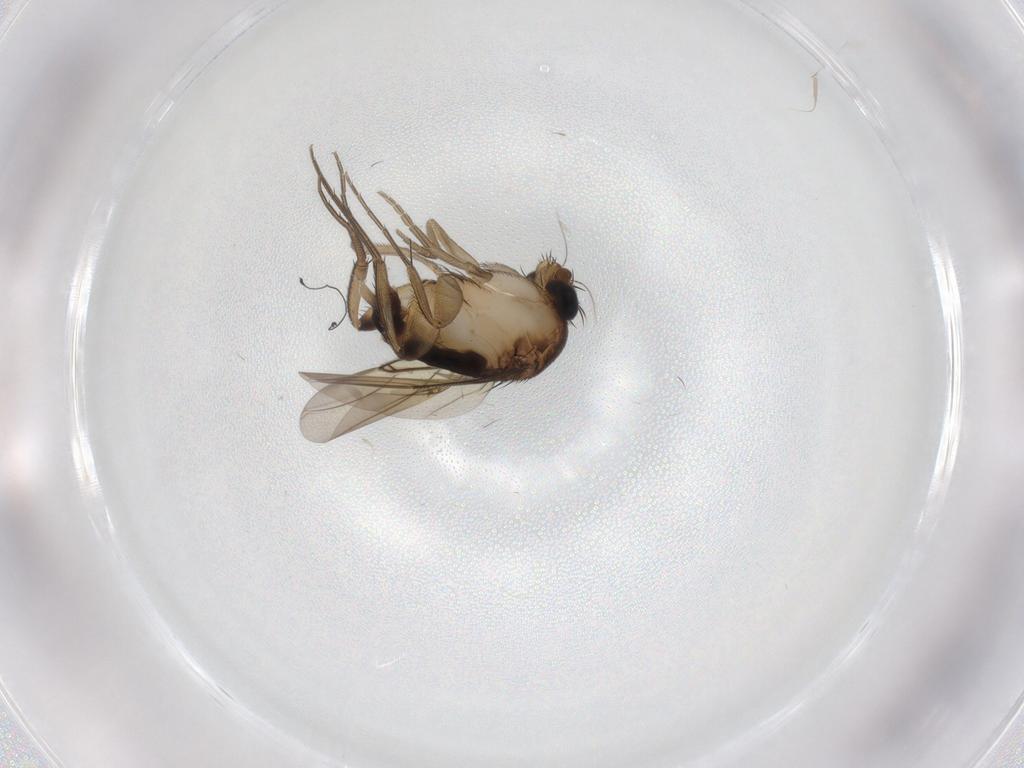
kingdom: Animalia
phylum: Arthropoda
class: Insecta
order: Diptera
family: Phoridae
